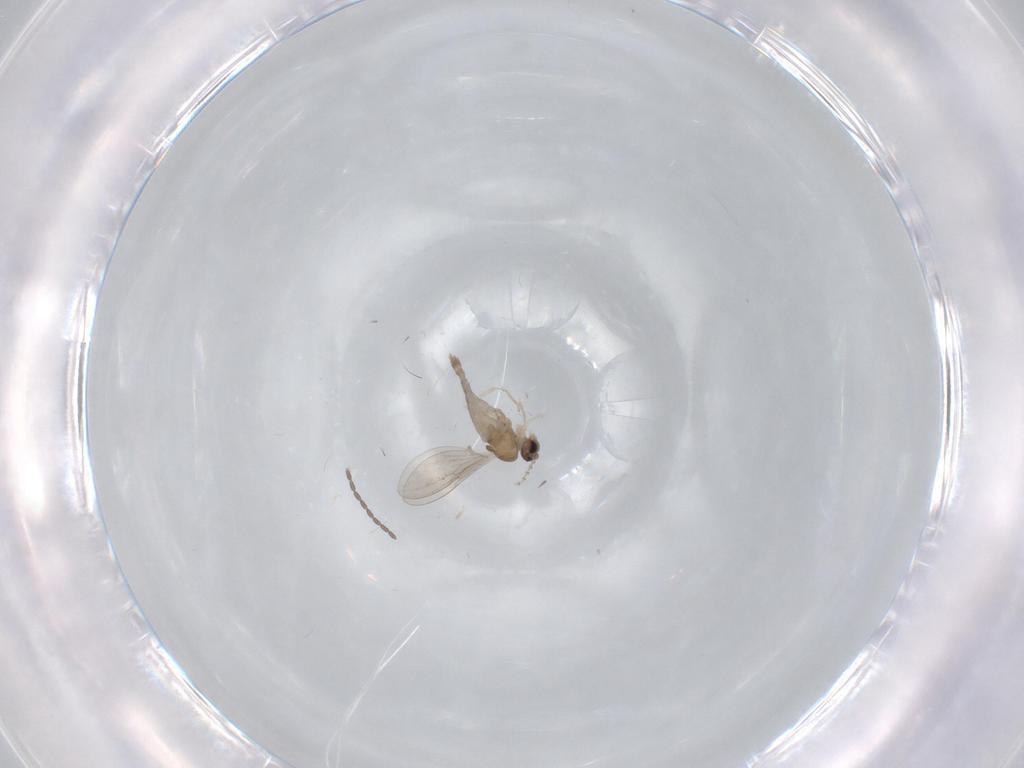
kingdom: Animalia
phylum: Arthropoda
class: Insecta
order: Diptera
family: Cecidomyiidae
